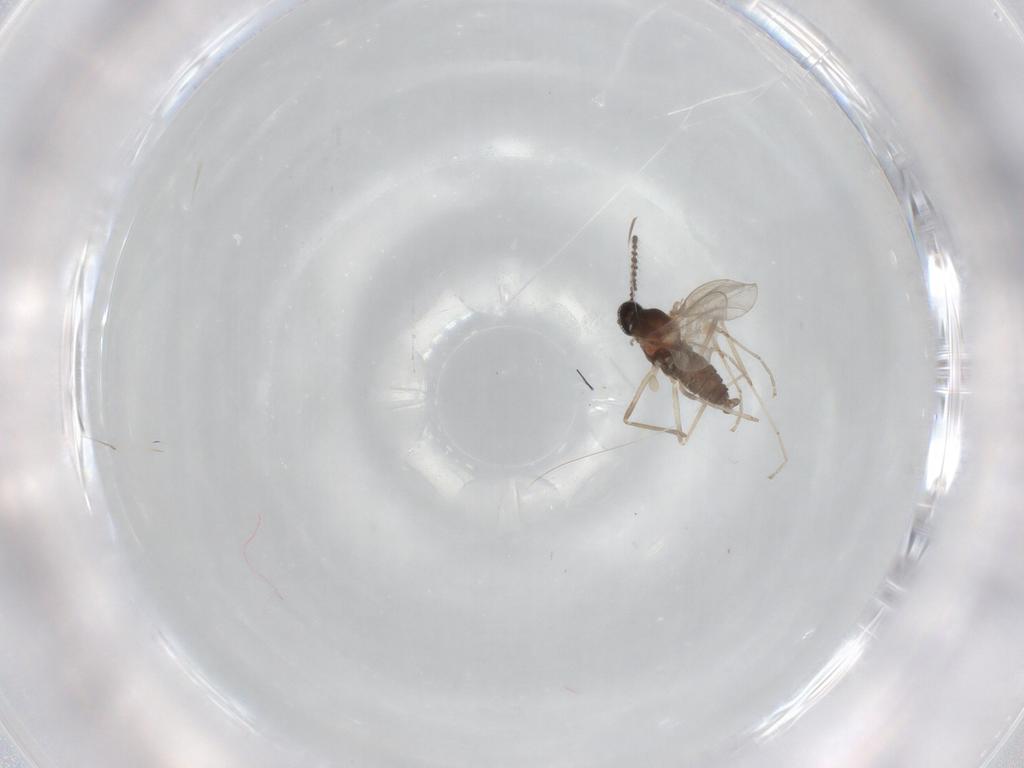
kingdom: Animalia
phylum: Arthropoda
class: Insecta
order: Diptera
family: Cecidomyiidae
